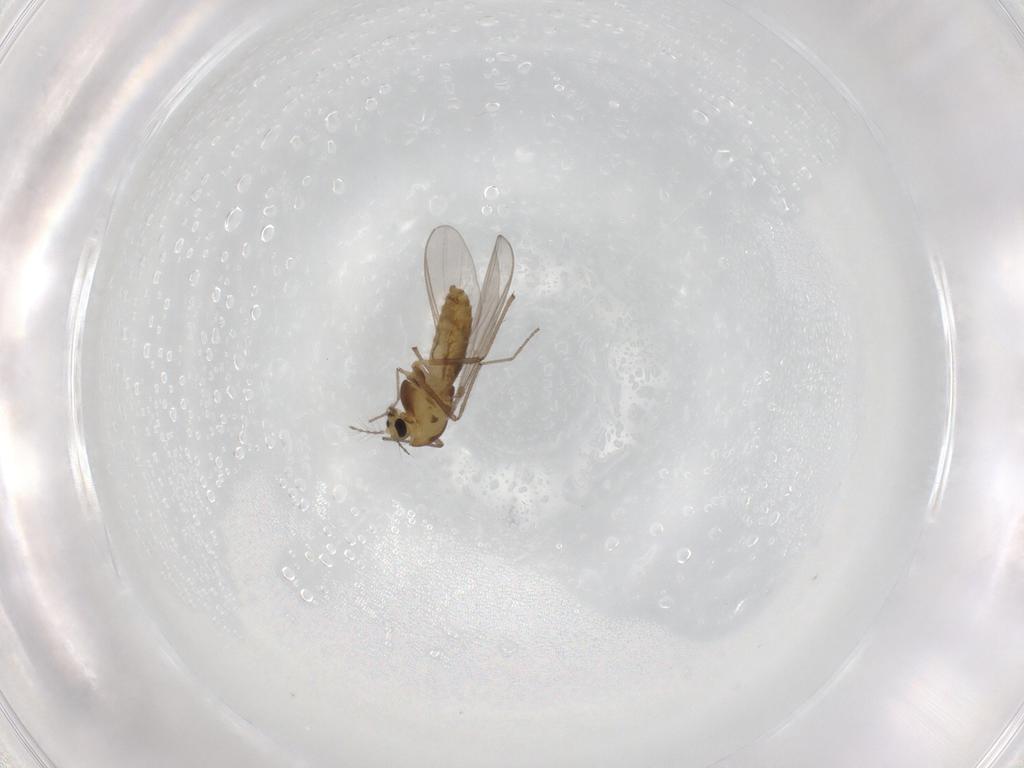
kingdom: Animalia
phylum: Arthropoda
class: Insecta
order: Diptera
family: Chironomidae
